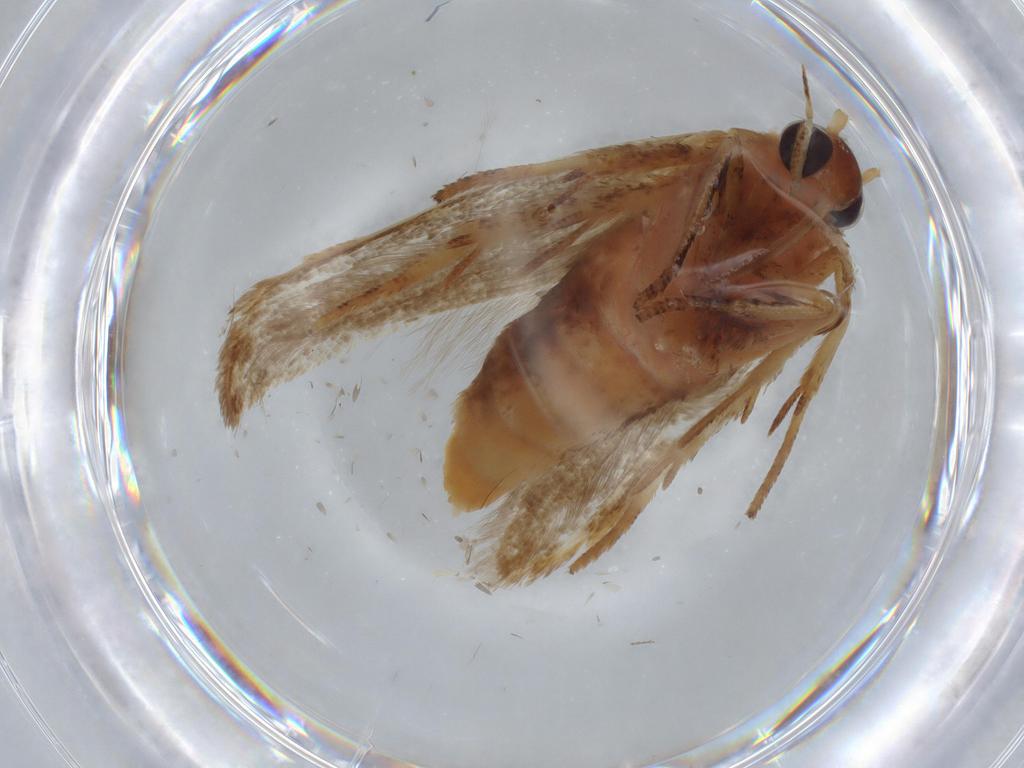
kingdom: Animalia
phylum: Arthropoda
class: Insecta
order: Lepidoptera
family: Blastobasidae
